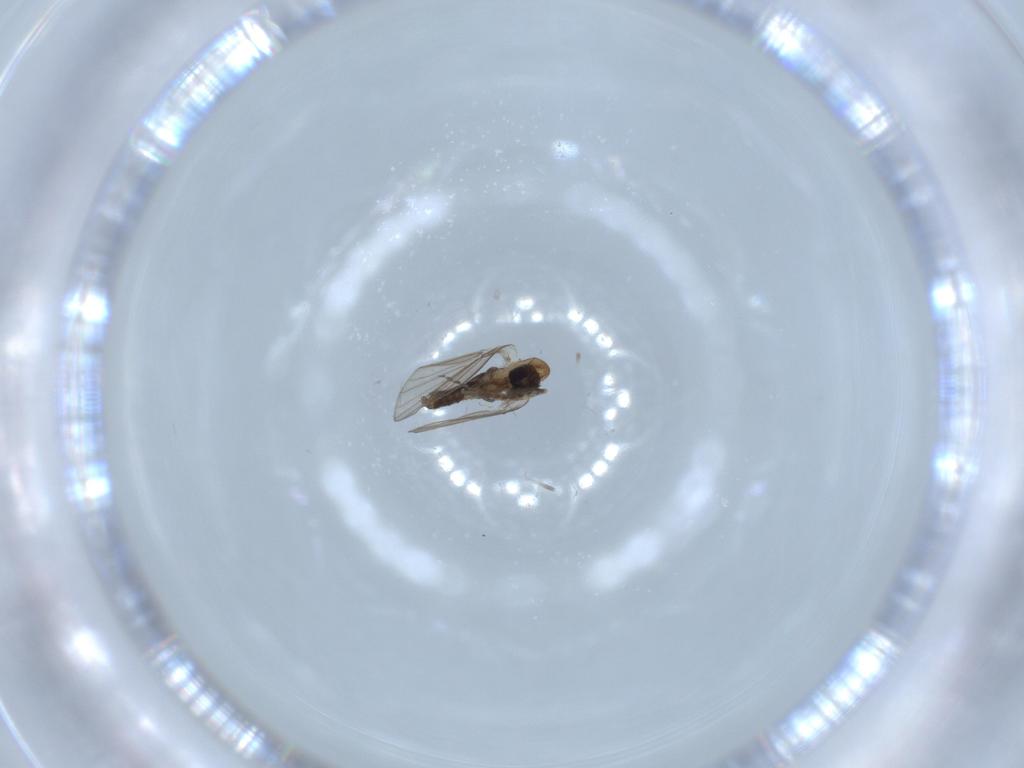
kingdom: Animalia
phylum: Arthropoda
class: Insecta
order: Diptera
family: Psychodidae
